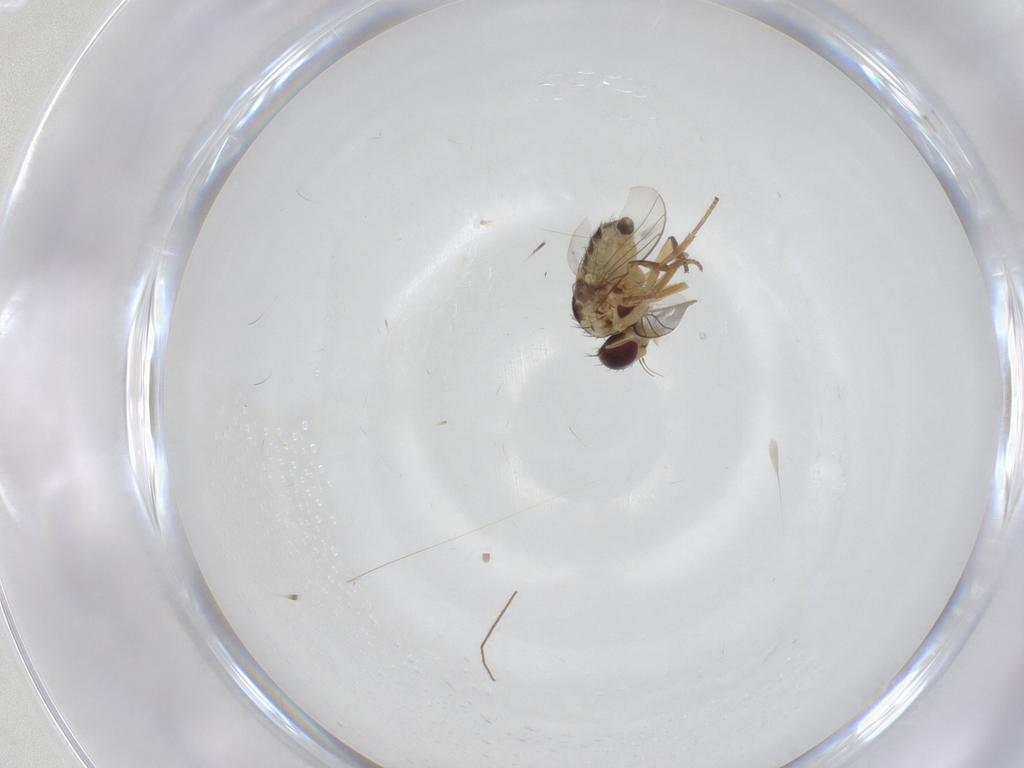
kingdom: Animalia
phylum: Arthropoda
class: Insecta
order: Diptera
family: Agromyzidae
